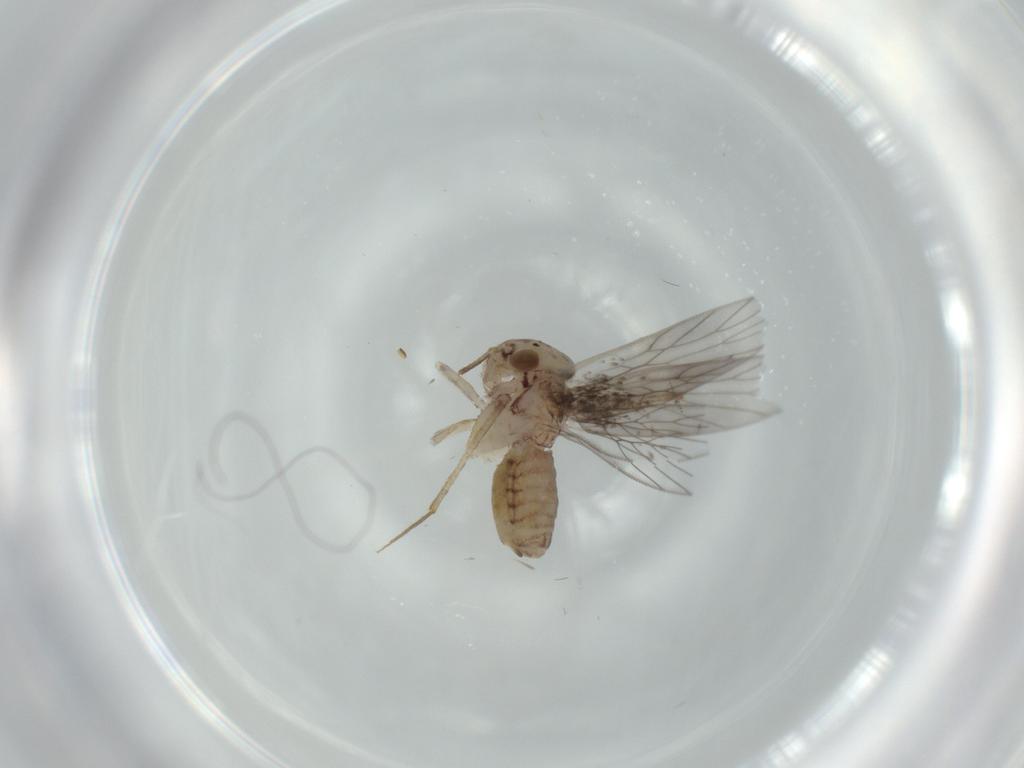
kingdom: Animalia
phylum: Arthropoda
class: Insecta
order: Psocodea
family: Lepidopsocidae
